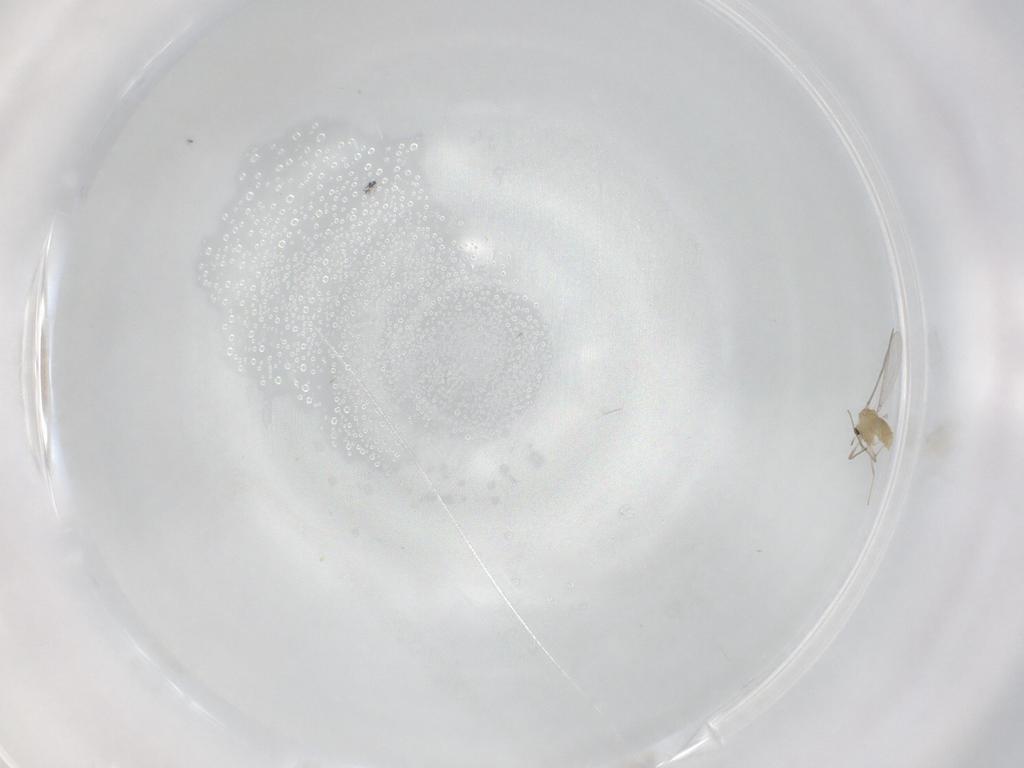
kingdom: Animalia
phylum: Arthropoda
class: Insecta
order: Diptera
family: Chironomidae
